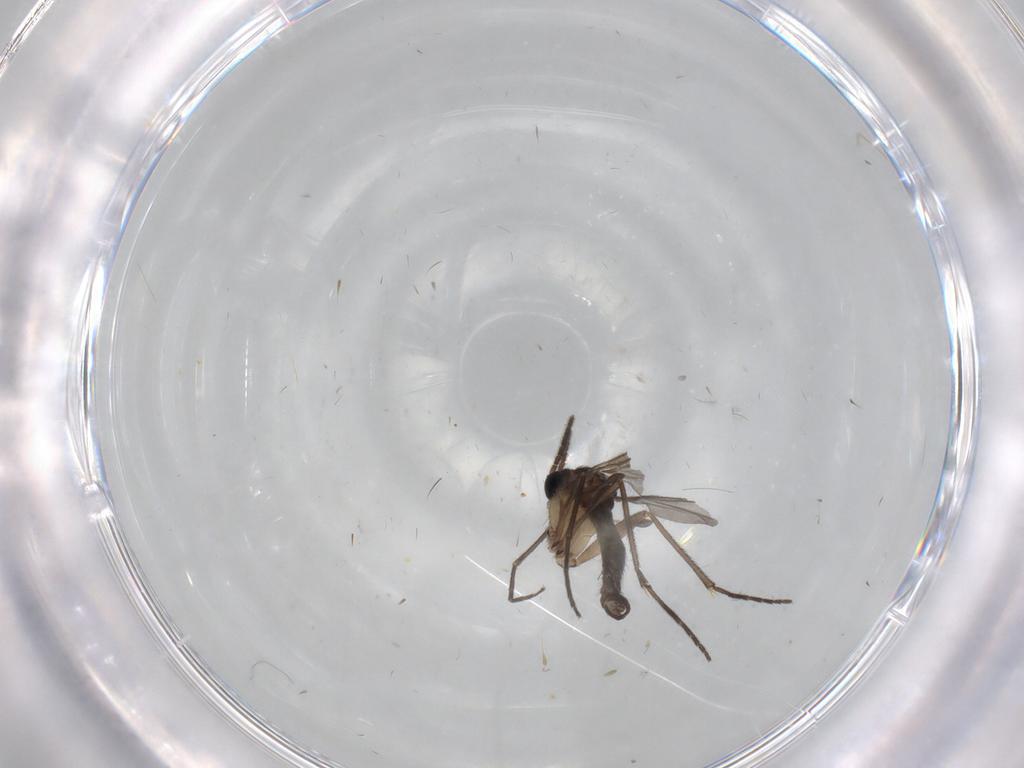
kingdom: Animalia
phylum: Arthropoda
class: Insecta
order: Diptera
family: Sciaridae
